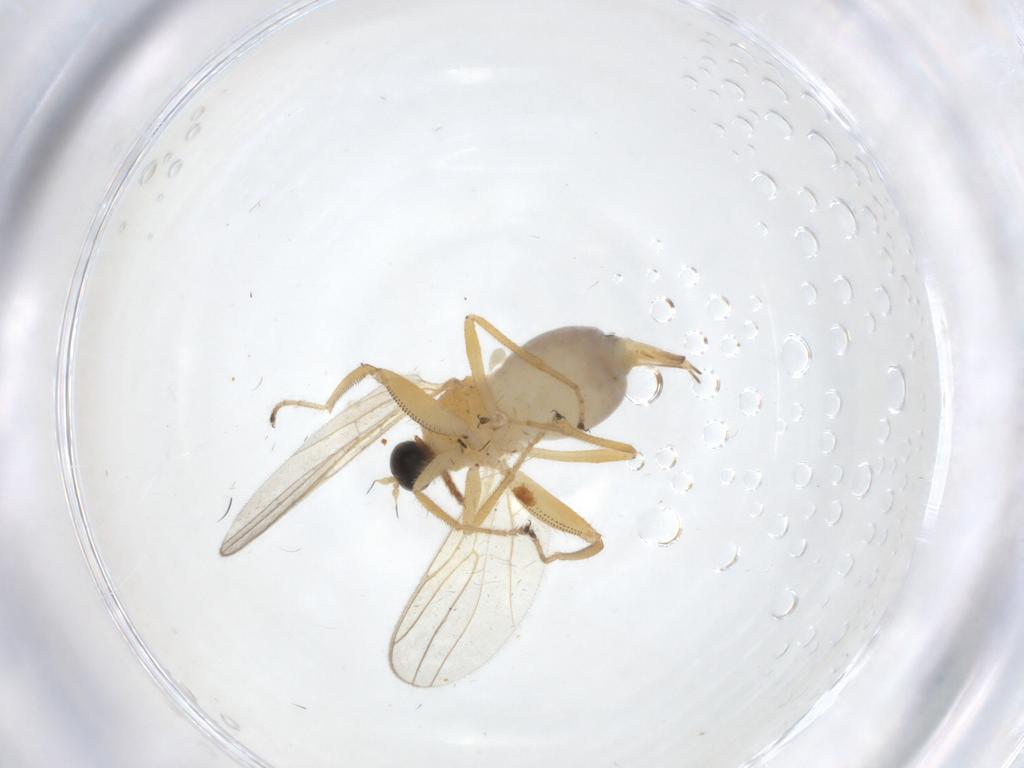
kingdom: Animalia
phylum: Arthropoda
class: Insecta
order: Diptera
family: Hybotidae
